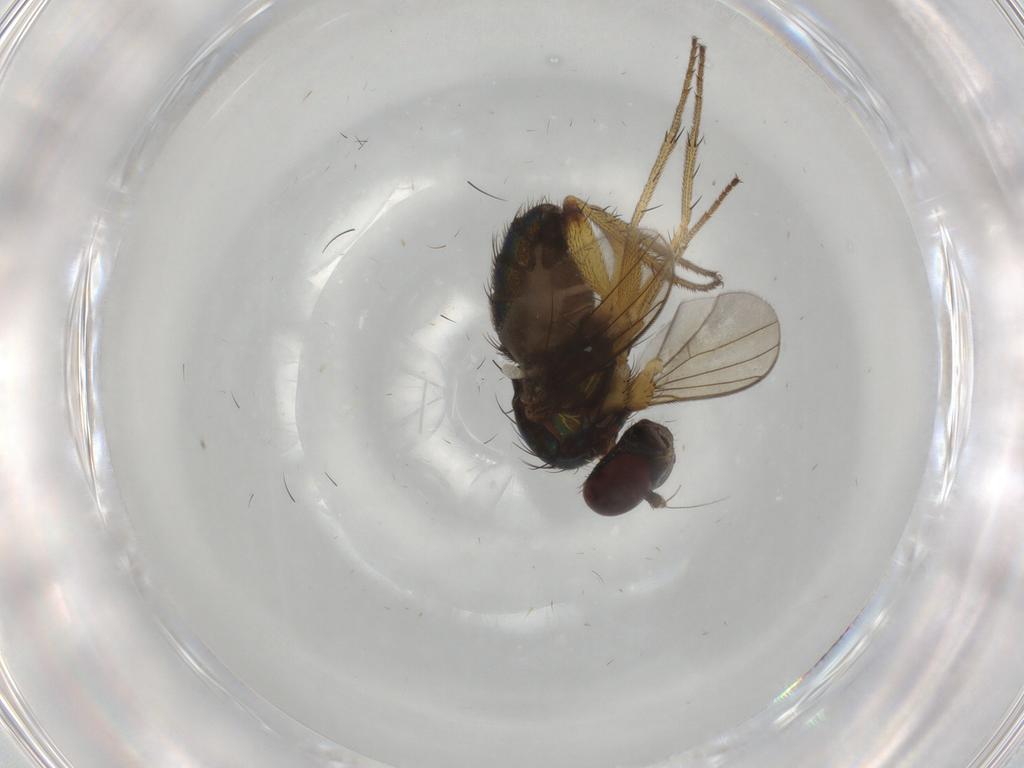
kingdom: Animalia
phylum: Arthropoda
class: Insecta
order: Diptera
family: Dolichopodidae
